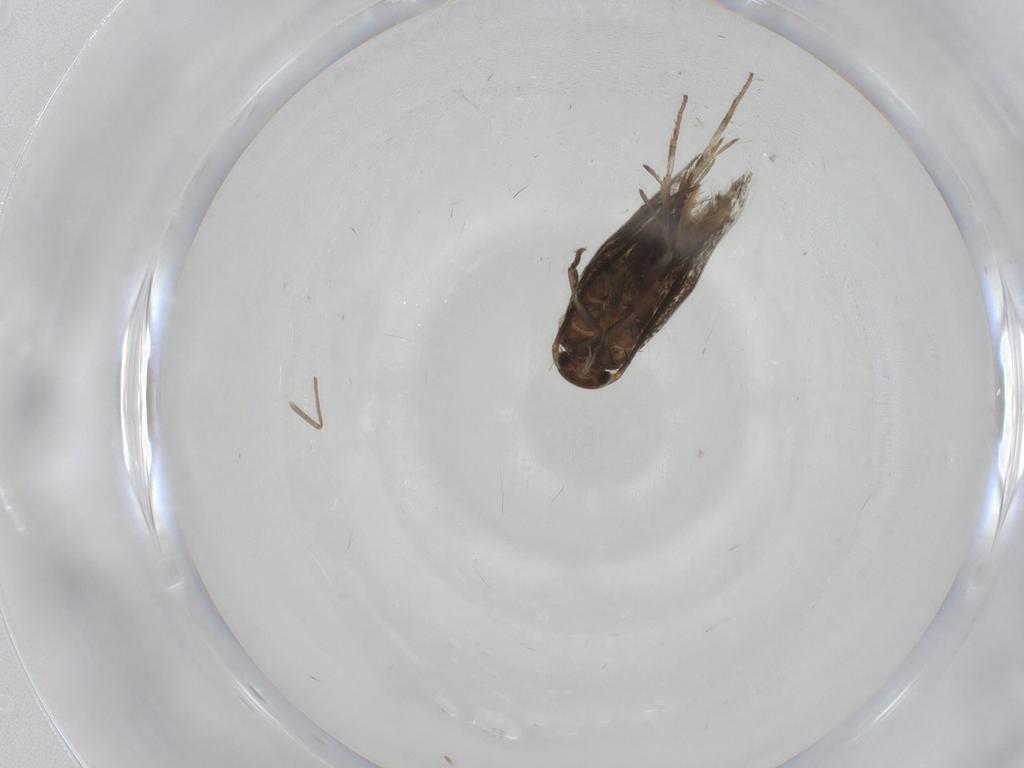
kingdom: Animalia
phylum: Arthropoda
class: Insecta
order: Lepidoptera
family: Elachistidae
